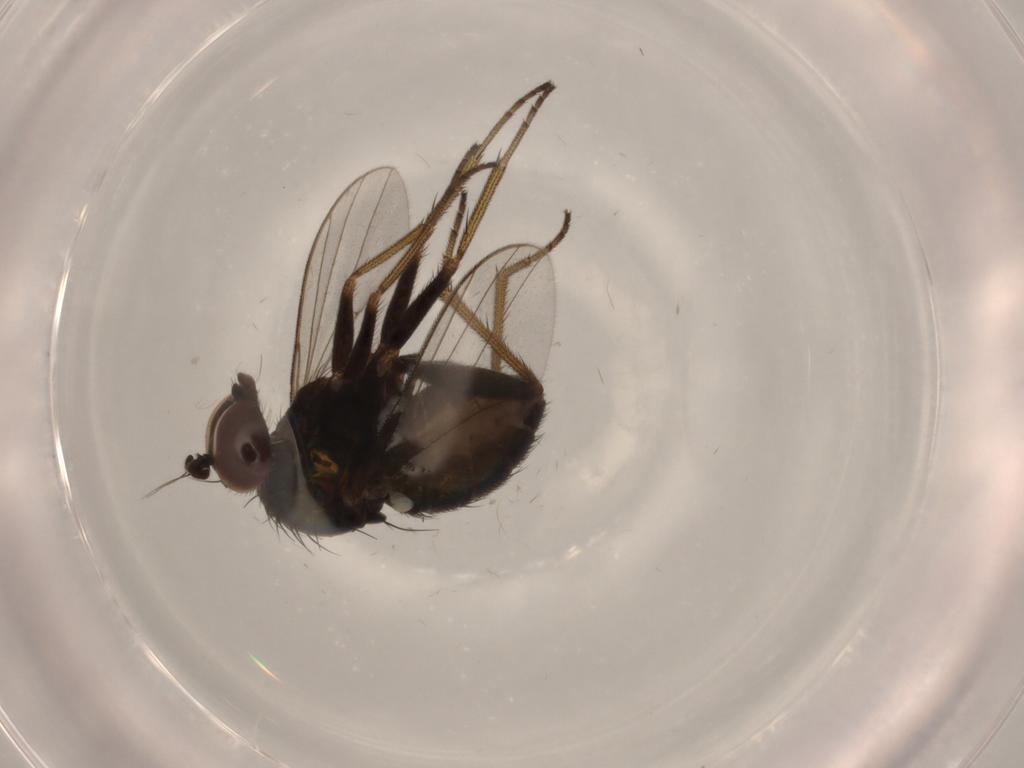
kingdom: Animalia
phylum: Arthropoda
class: Insecta
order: Diptera
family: Dolichopodidae
